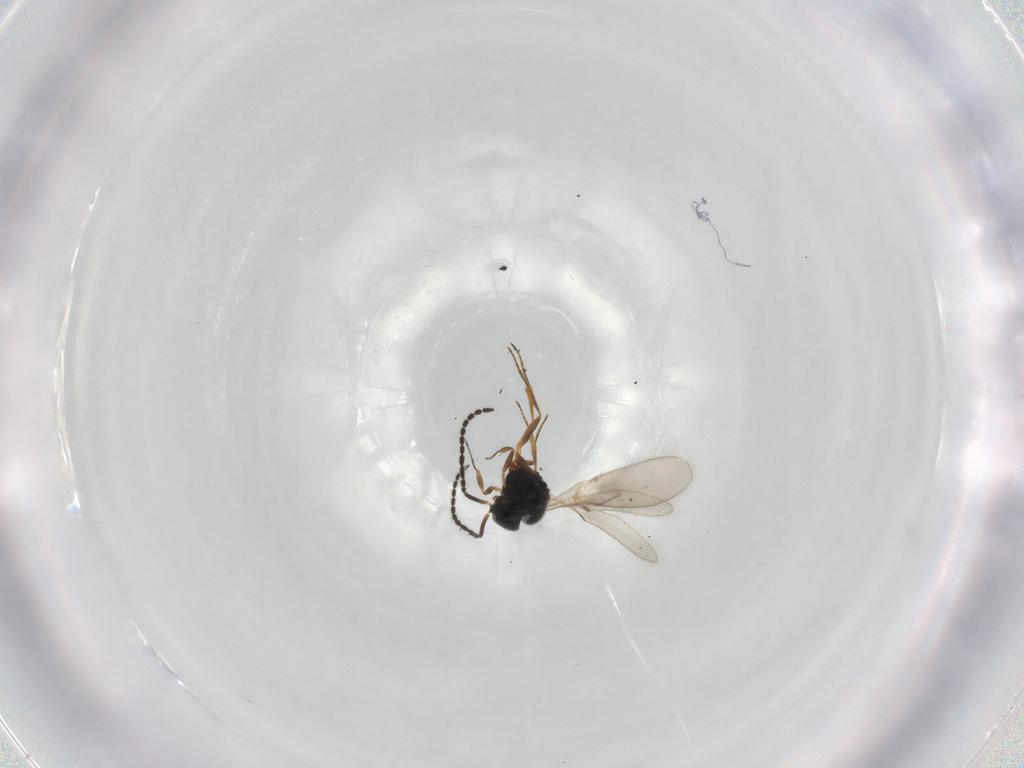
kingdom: Animalia
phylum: Arthropoda
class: Insecta
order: Hymenoptera
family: Scelionidae
